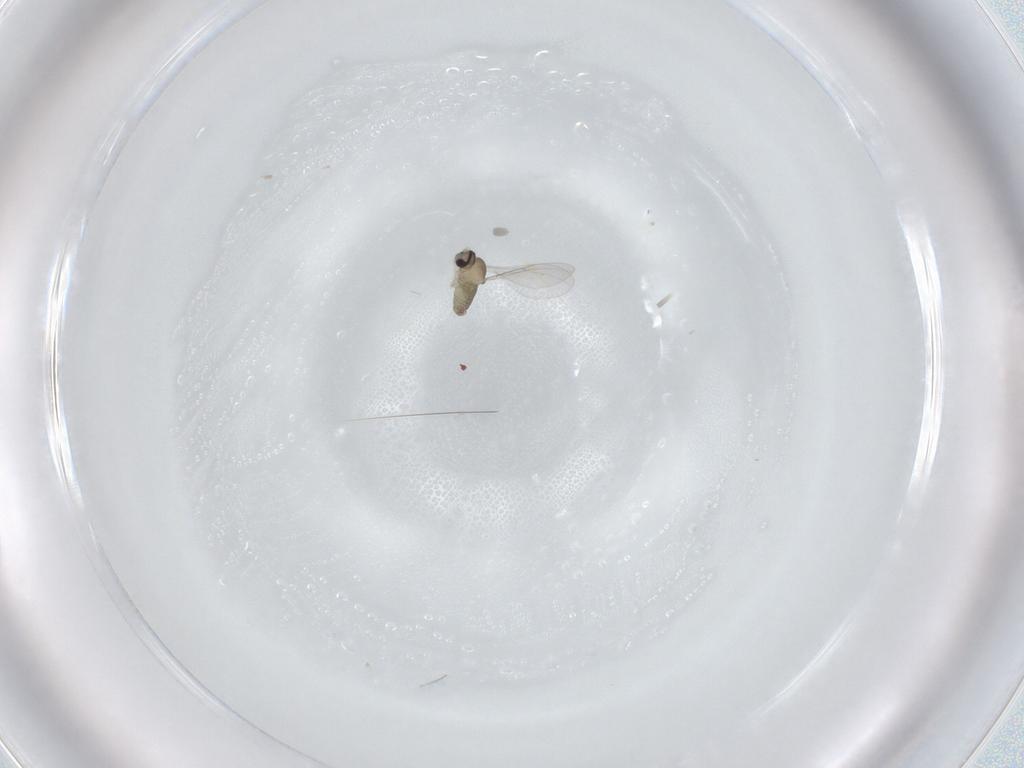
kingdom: Animalia
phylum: Arthropoda
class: Insecta
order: Diptera
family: Cecidomyiidae
